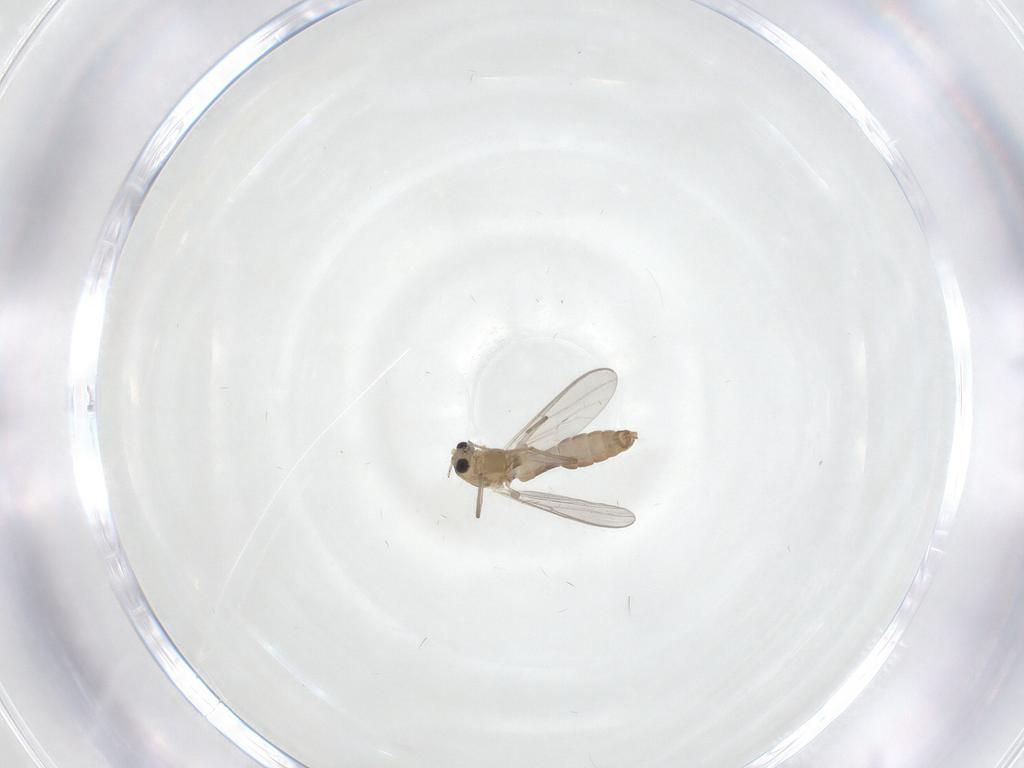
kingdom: Animalia
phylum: Arthropoda
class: Insecta
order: Diptera
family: Chironomidae
